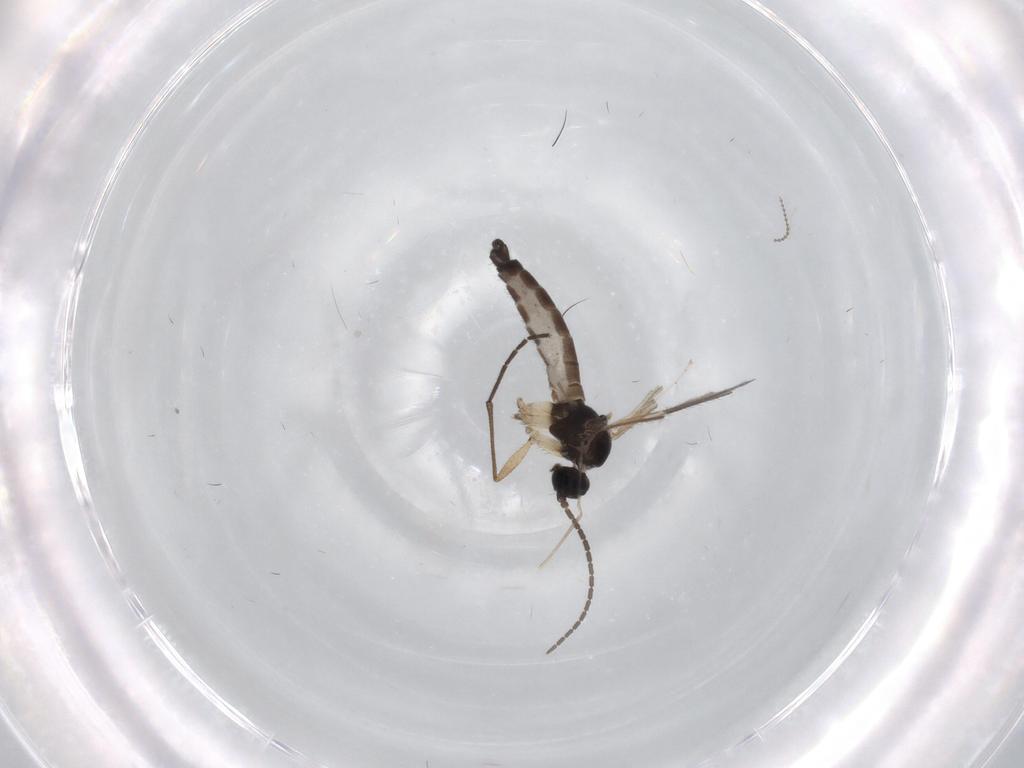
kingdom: Animalia
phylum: Arthropoda
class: Insecta
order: Diptera
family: Sciaridae
